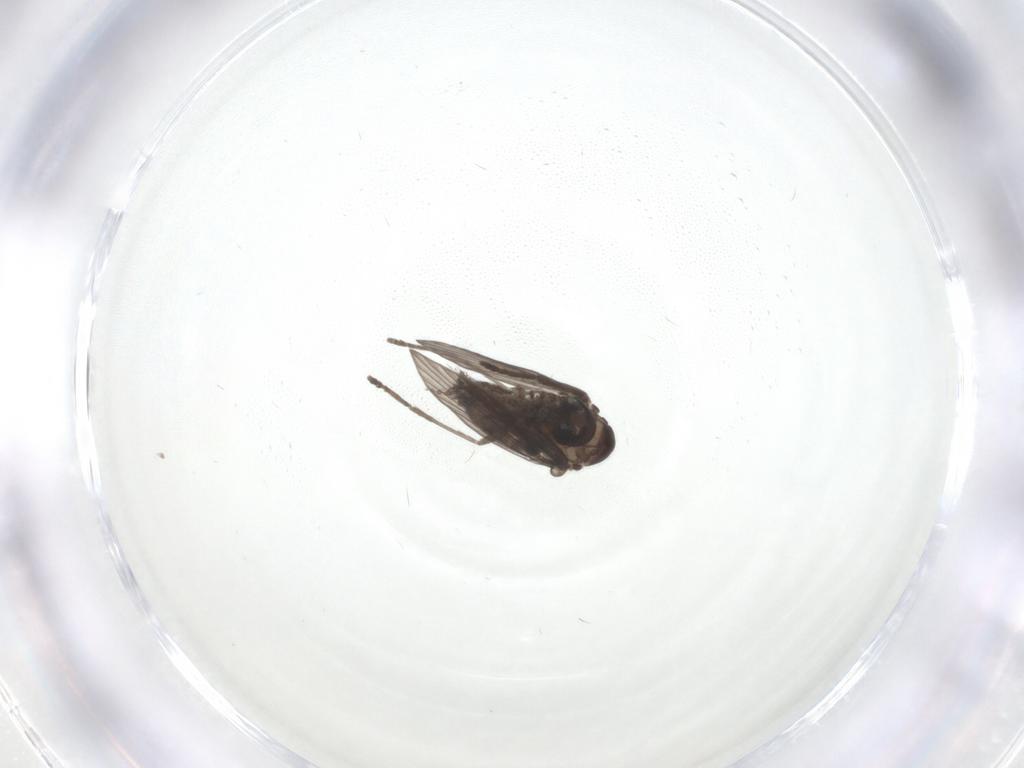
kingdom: Animalia
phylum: Arthropoda
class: Insecta
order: Diptera
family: Psychodidae
